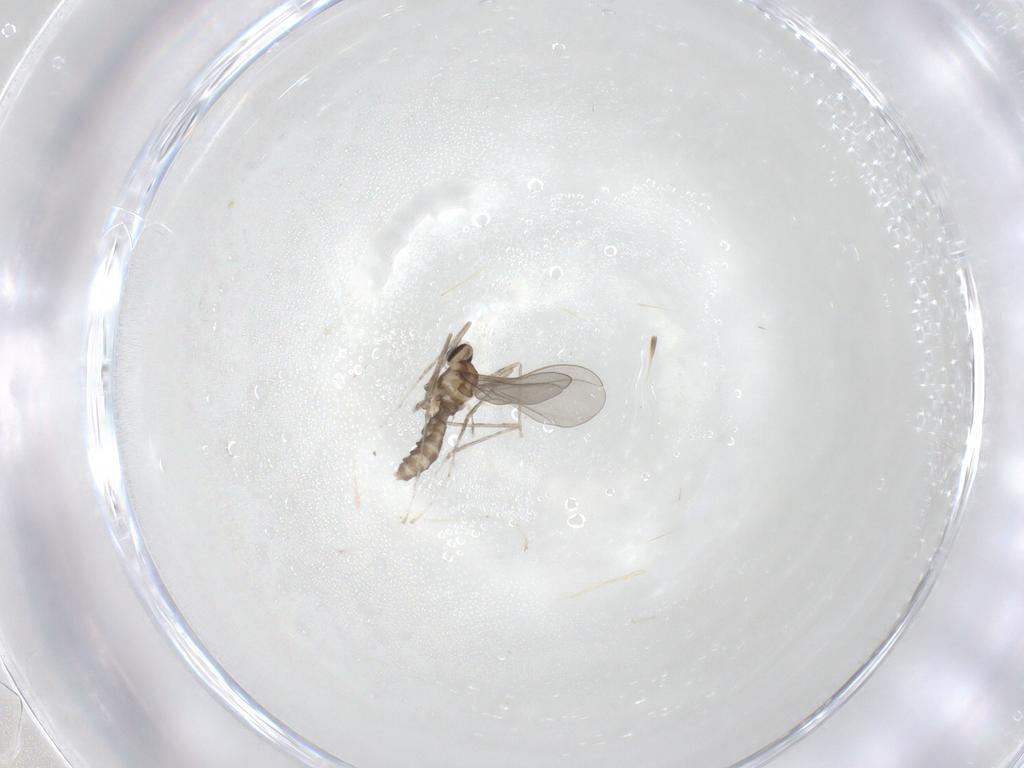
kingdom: Animalia
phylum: Arthropoda
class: Insecta
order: Diptera
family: Cecidomyiidae
